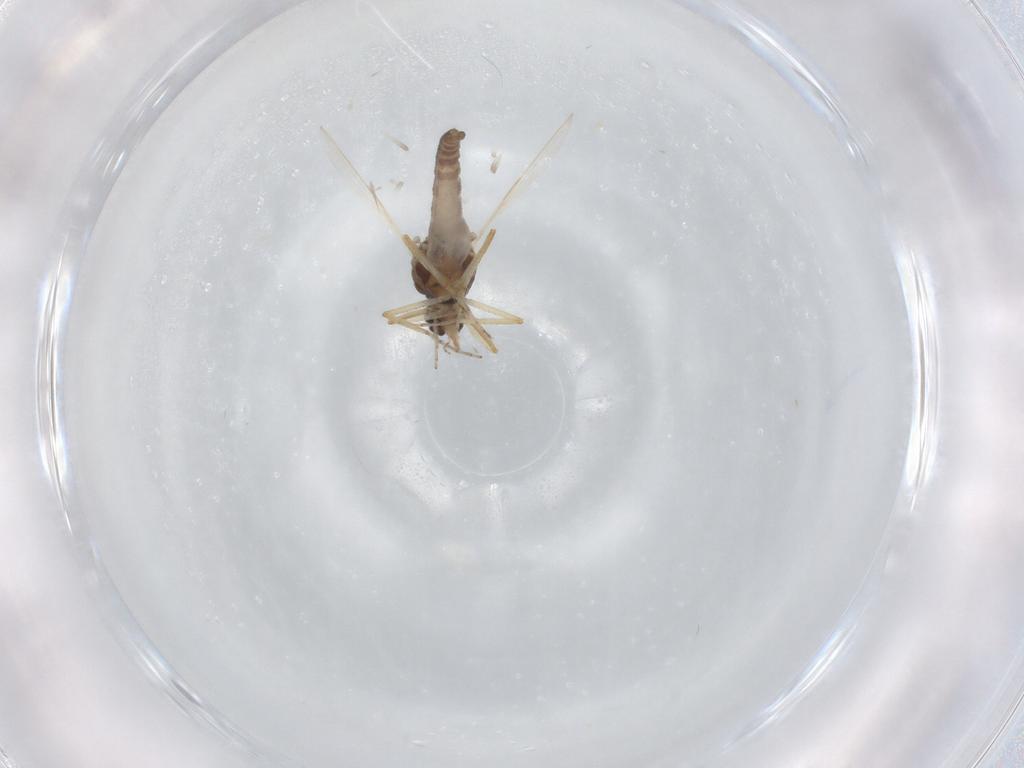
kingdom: Animalia
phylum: Arthropoda
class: Insecta
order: Diptera
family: Ceratopogonidae
